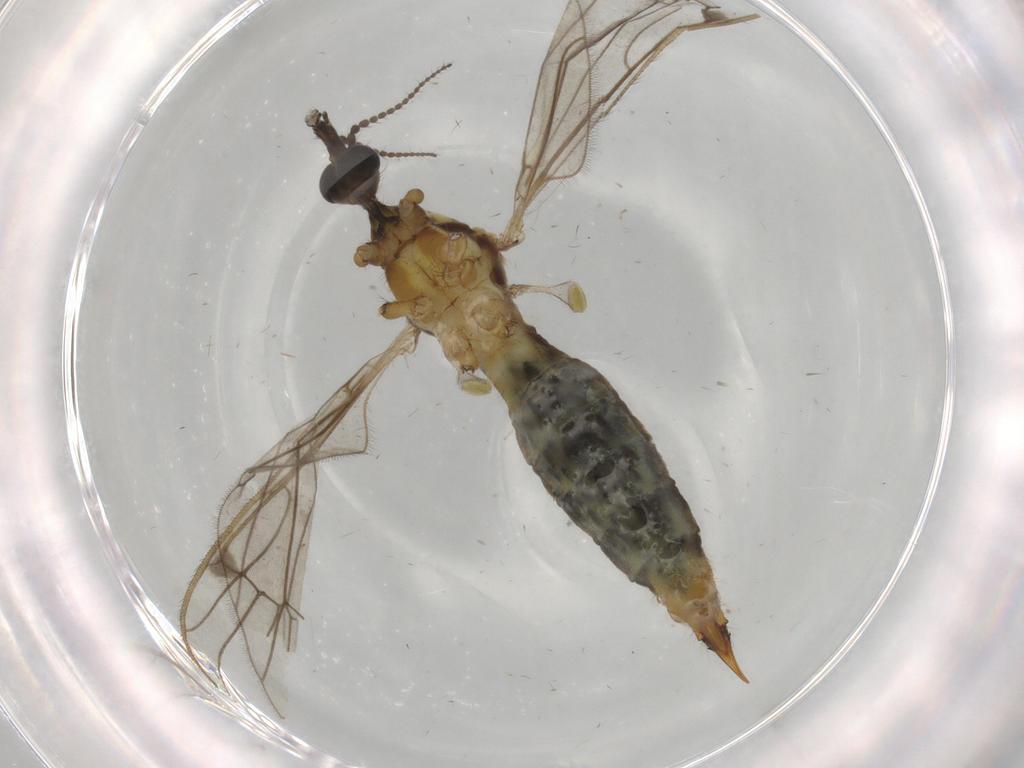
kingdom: Animalia
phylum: Arthropoda
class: Insecta
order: Diptera
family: Limoniidae
